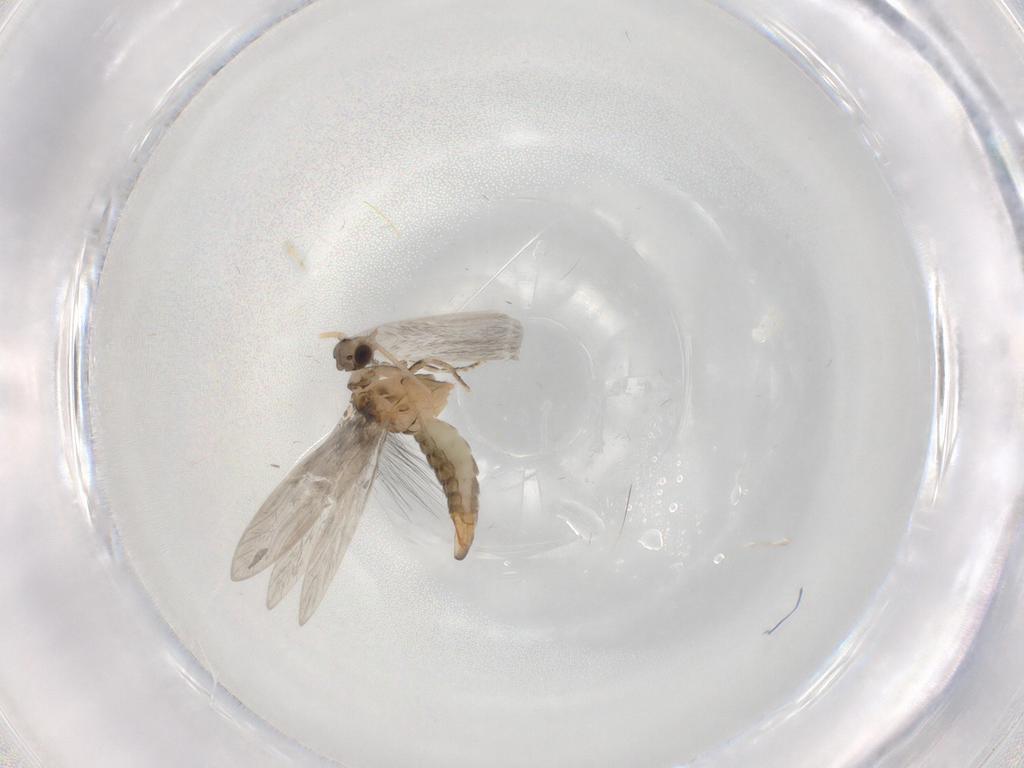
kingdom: Animalia
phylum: Arthropoda
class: Insecta
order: Trichoptera
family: Hydroptilidae
